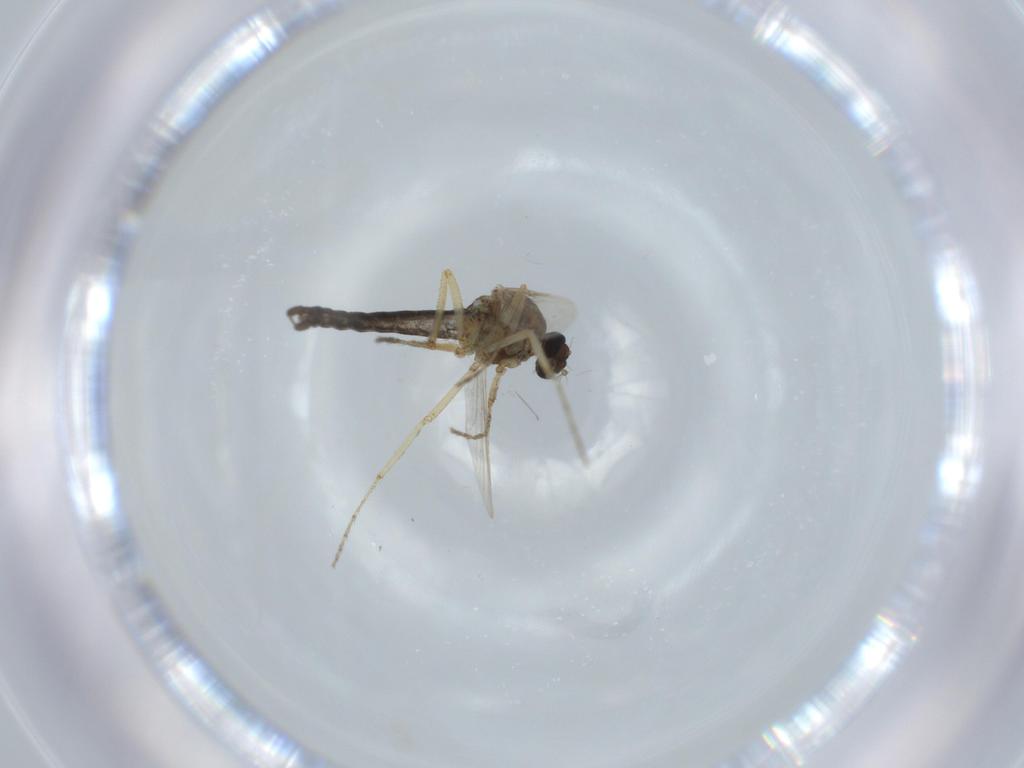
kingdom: Animalia
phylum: Arthropoda
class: Insecta
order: Diptera
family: Ceratopogonidae
